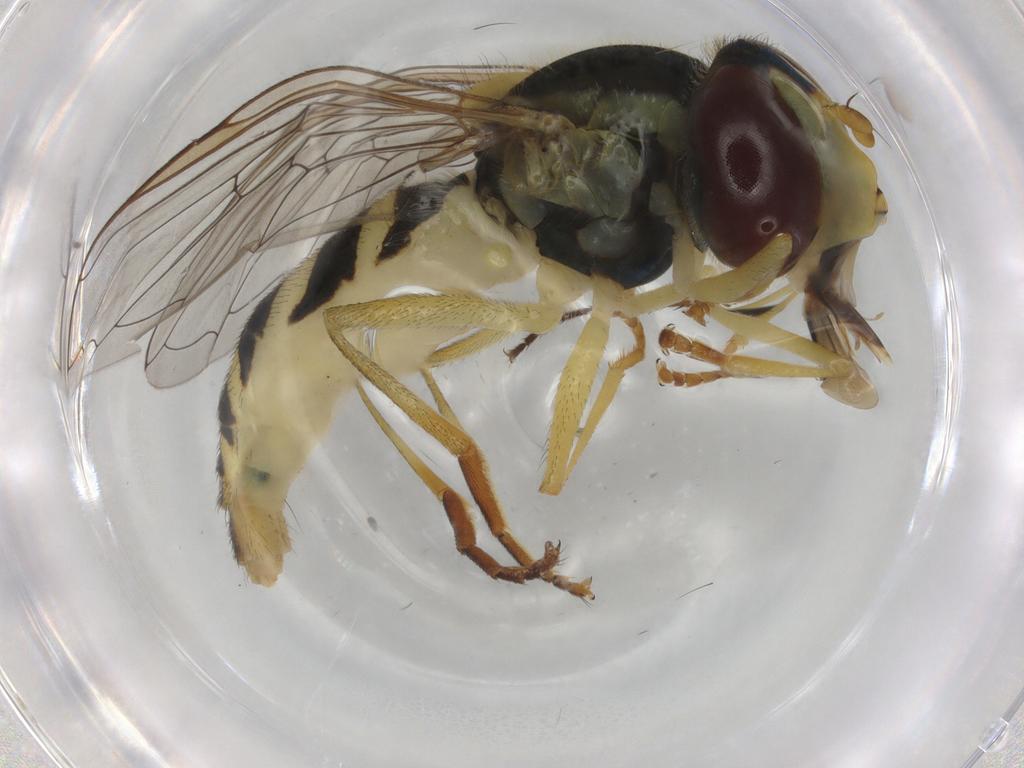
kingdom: Animalia
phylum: Arthropoda
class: Insecta
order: Diptera
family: Syrphidae
